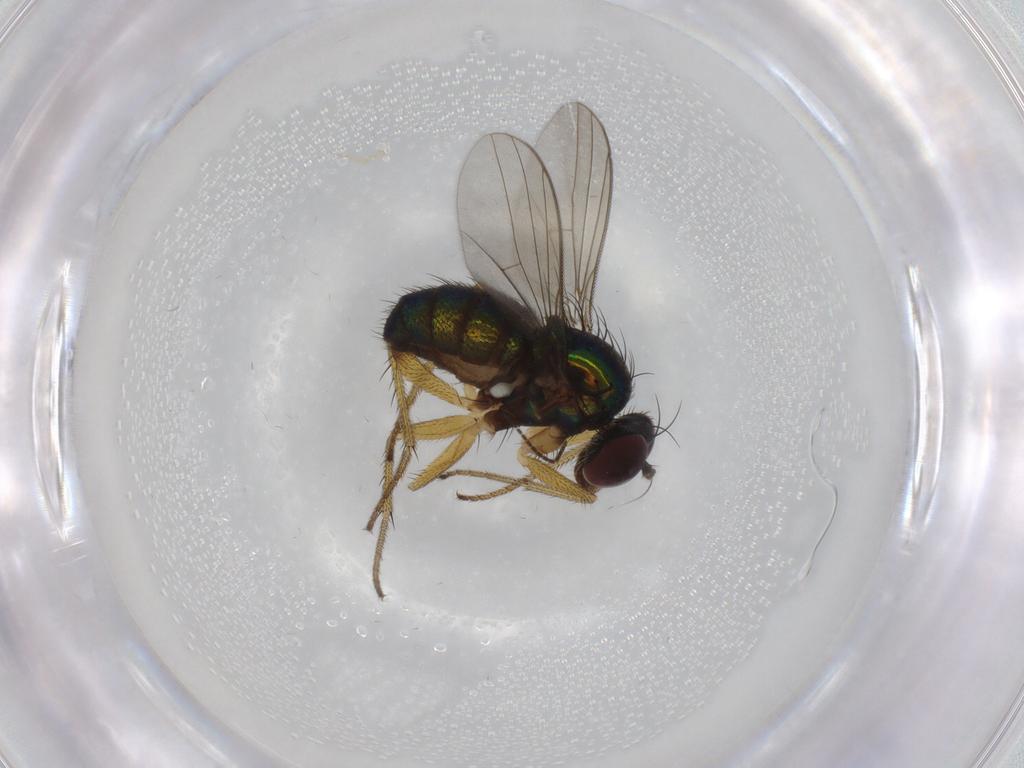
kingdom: Animalia
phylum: Arthropoda
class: Insecta
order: Diptera
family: Dolichopodidae
